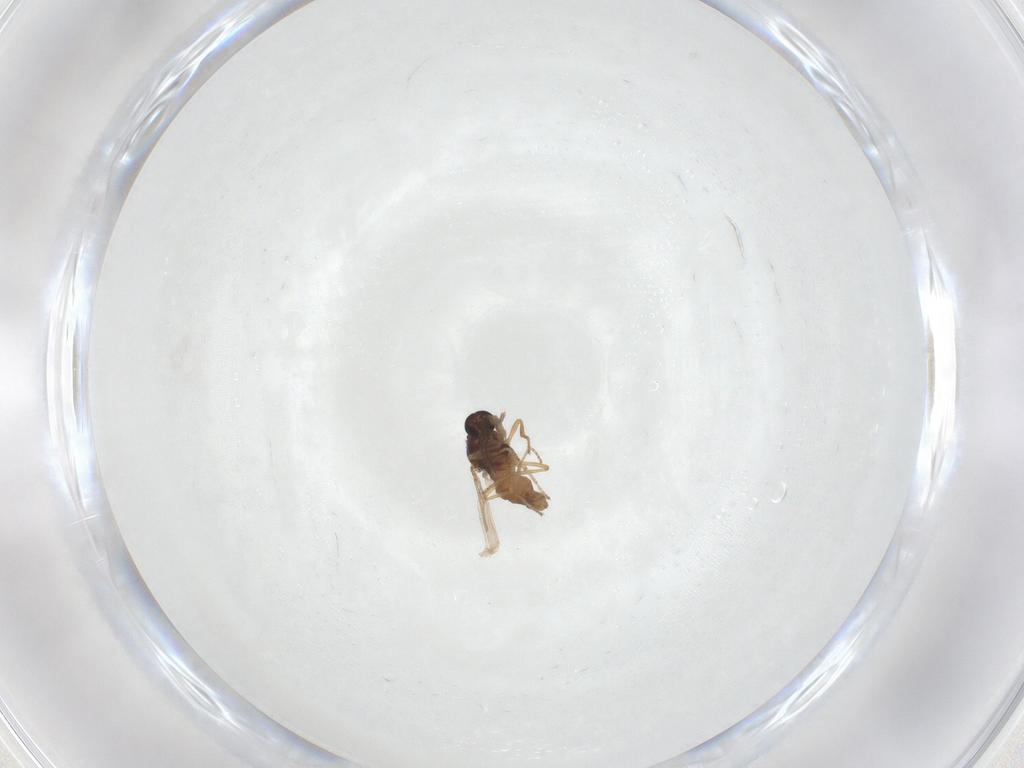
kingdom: Animalia
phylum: Arthropoda
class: Insecta
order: Diptera
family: Ceratopogonidae
